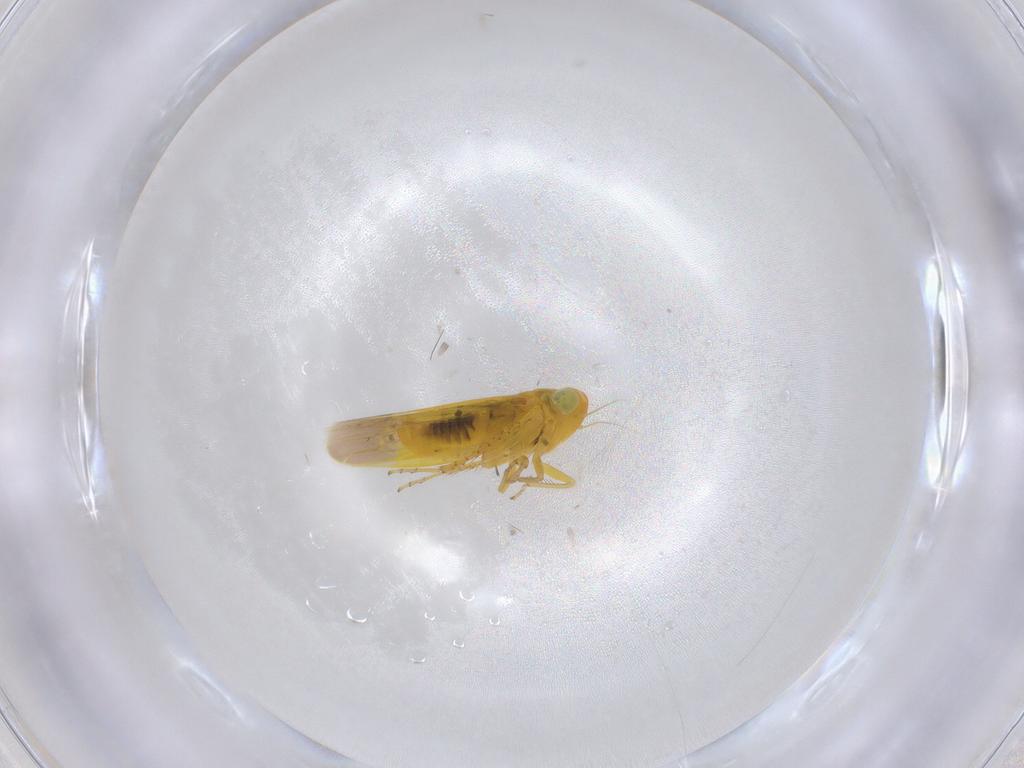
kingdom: Animalia
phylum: Arthropoda
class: Insecta
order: Hemiptera
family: Cicadellidae
